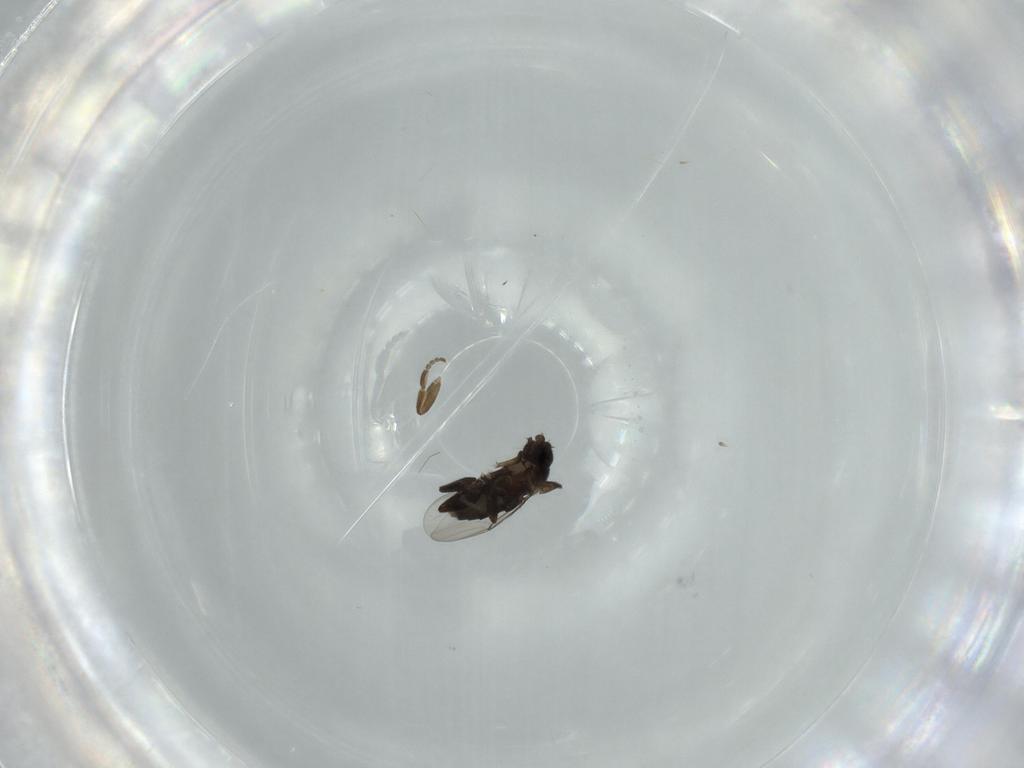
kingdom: Animalia
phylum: Arthropoda
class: Insecta
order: Diptera
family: Phoridae
